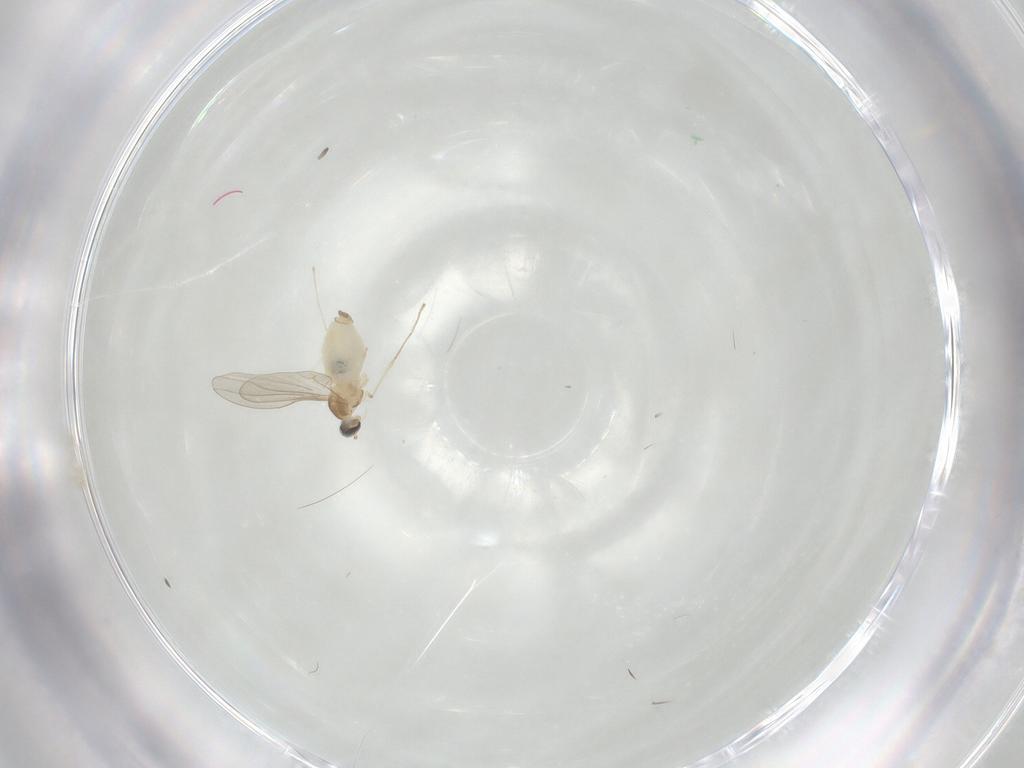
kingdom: Animalia
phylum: Arthropoda
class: Insecta
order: Diptera
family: Cecidomyiidae
